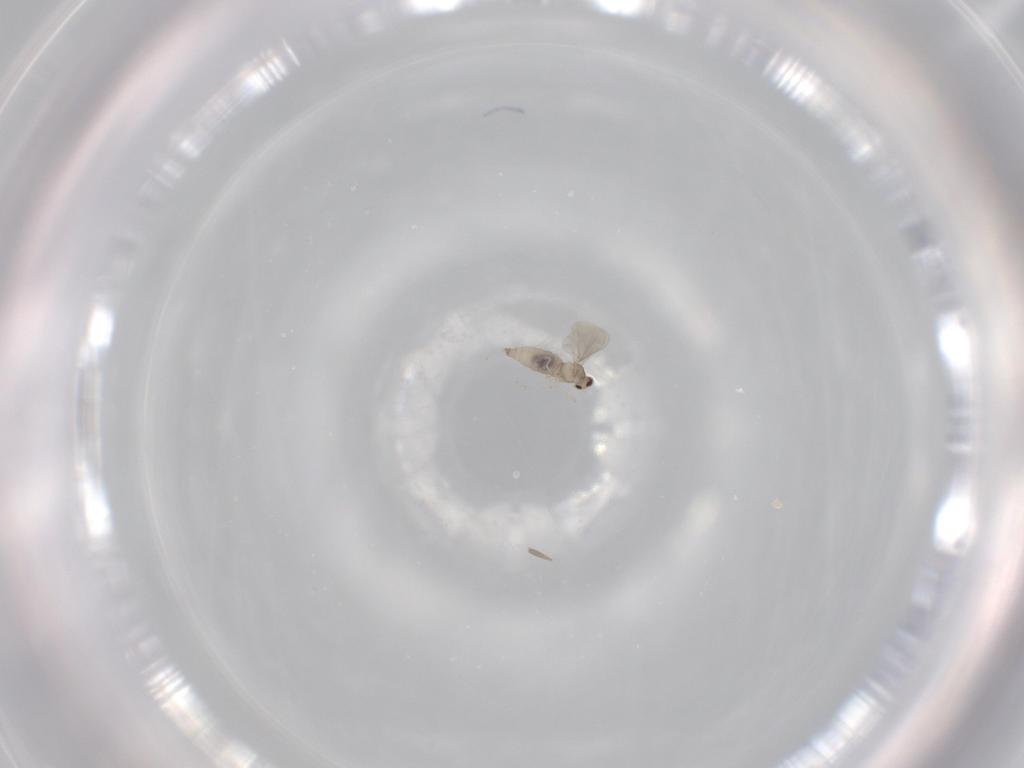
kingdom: Animalia
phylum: Arthropoda
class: Insecta
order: Diptera
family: Cecidomyiidae
